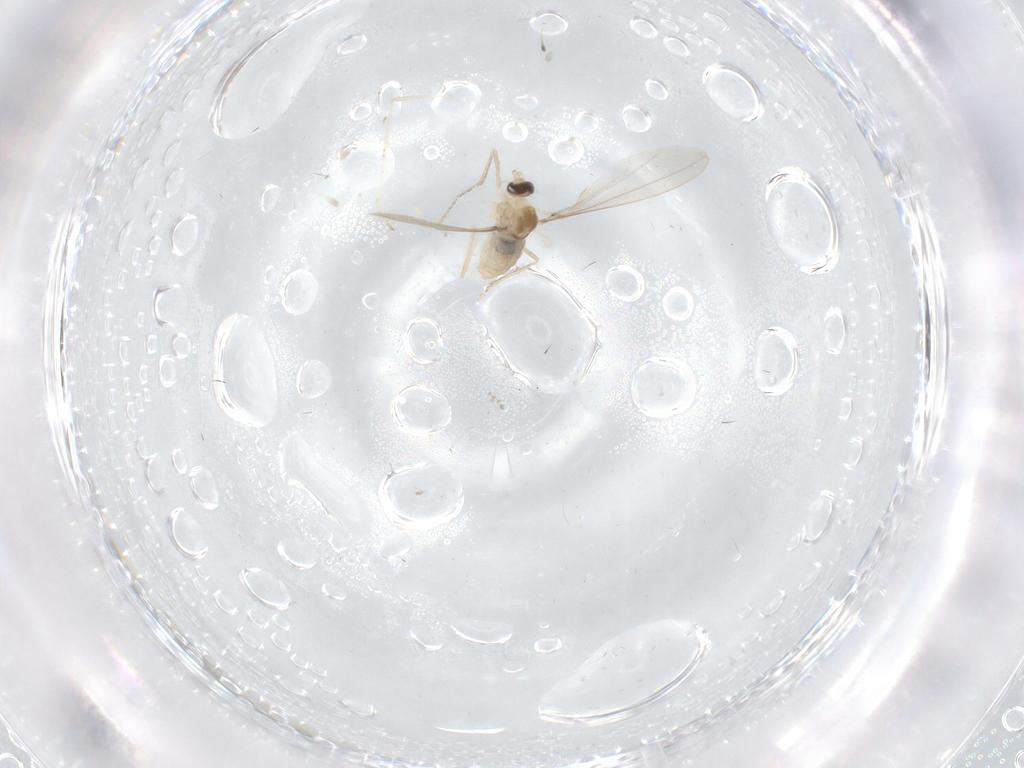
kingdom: Animalia
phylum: Arthropoda
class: Insecta
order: Diptera
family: Cecidomyiidae
